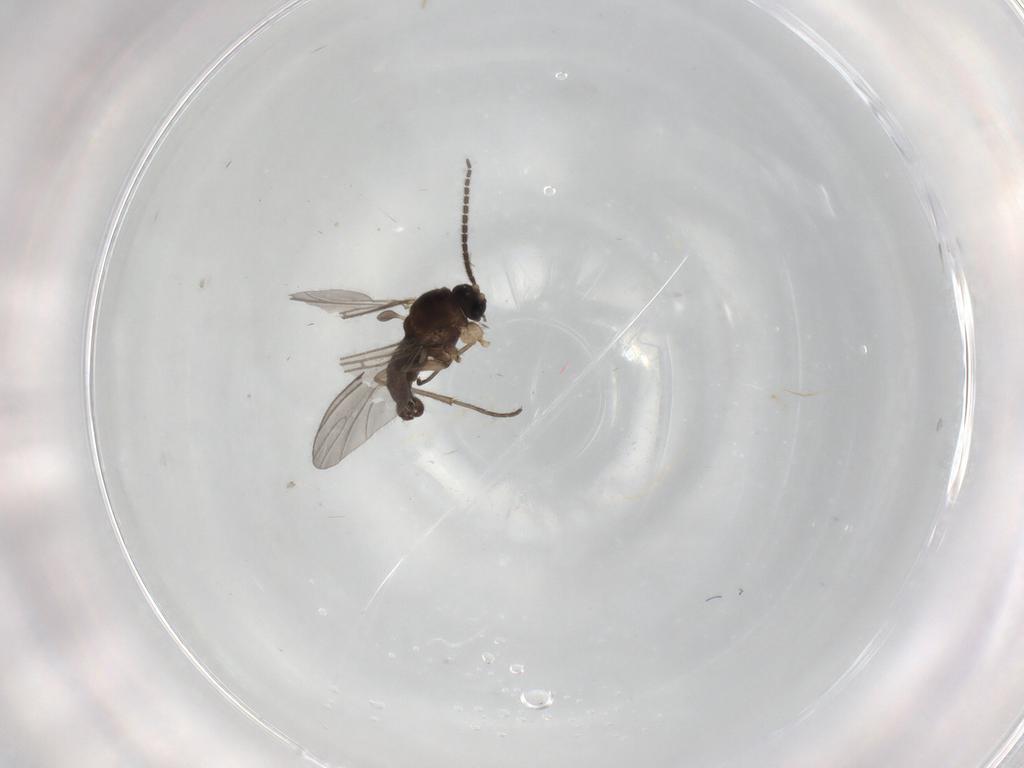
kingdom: Animalia
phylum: Arthropoda
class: Insecta
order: Diptera
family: Sciaridae
